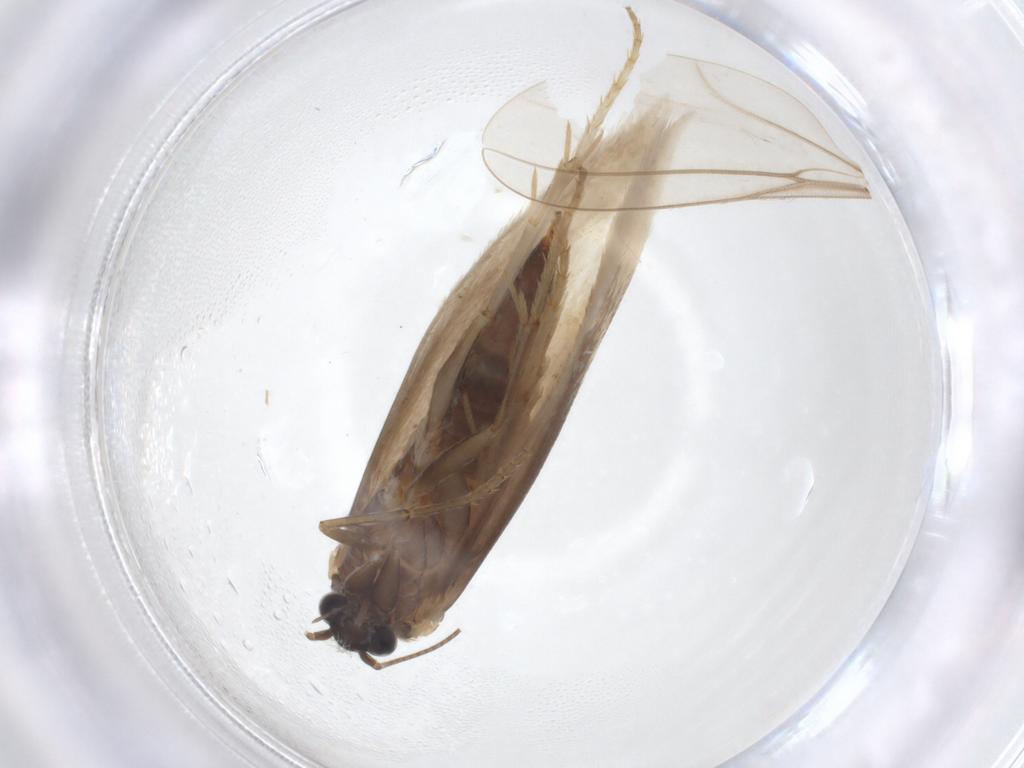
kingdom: Animalia
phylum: Arthropoda
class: Insecta
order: Lepidoptera
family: Tridentaformidae
